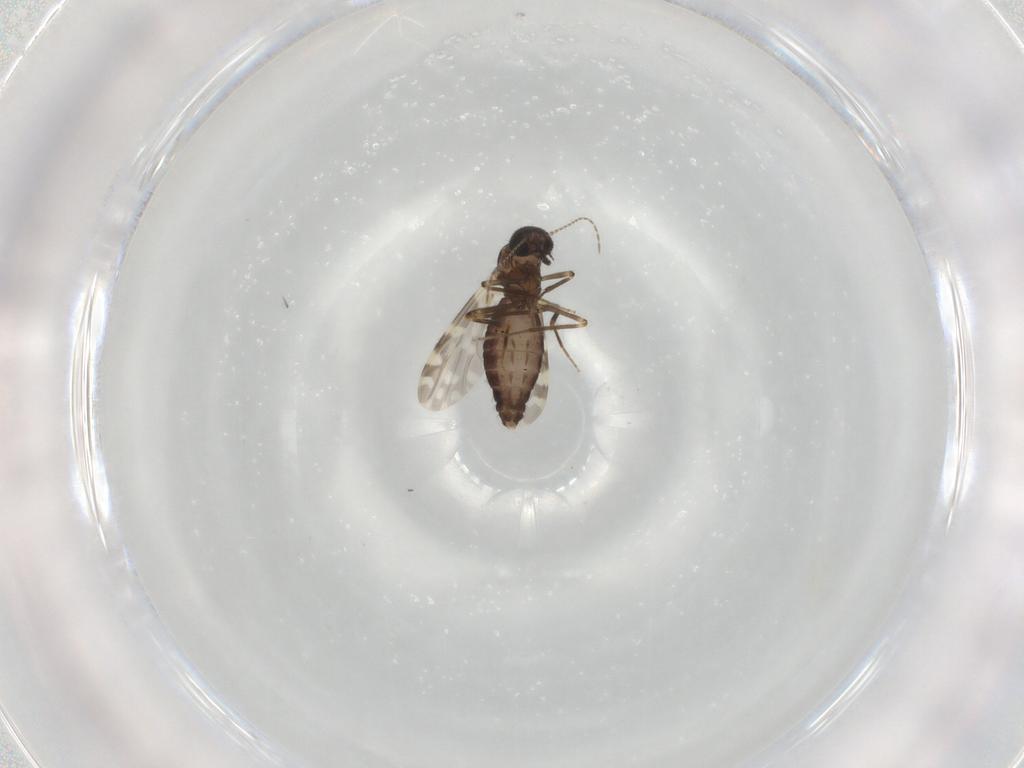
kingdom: Animalia
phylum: Arthropoda
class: Insecta
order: Diptera
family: Ceratopogonidae
